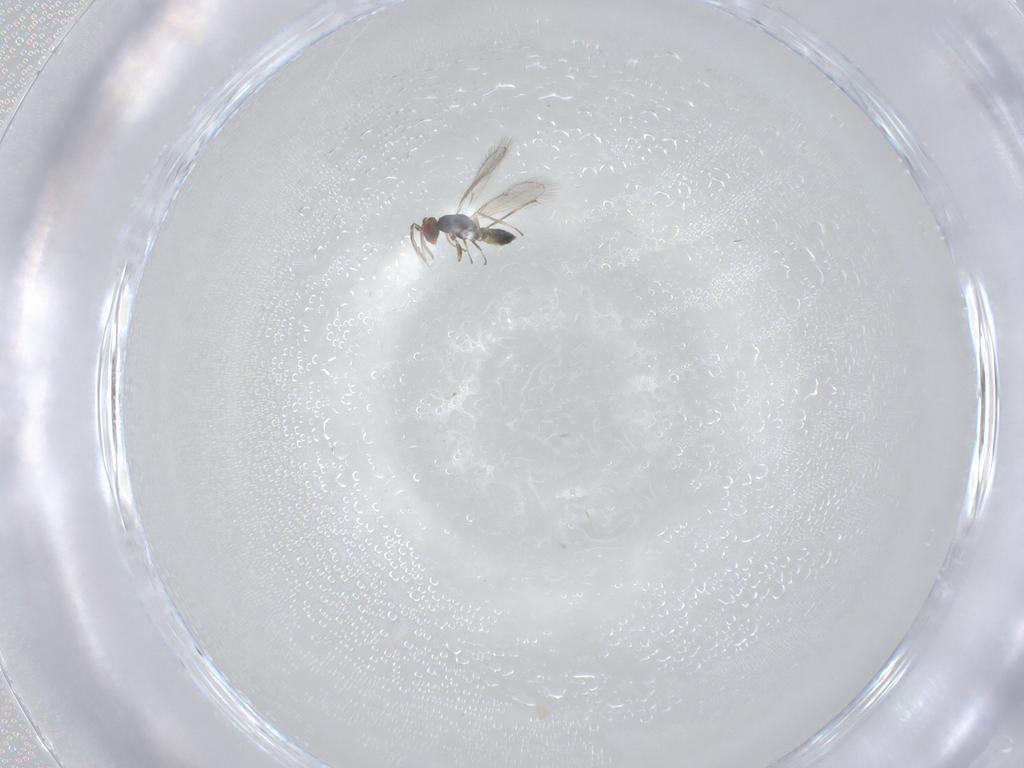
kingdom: Animalia
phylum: Arthropoda
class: Insecta
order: Hymenoptera
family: Eulophidae
